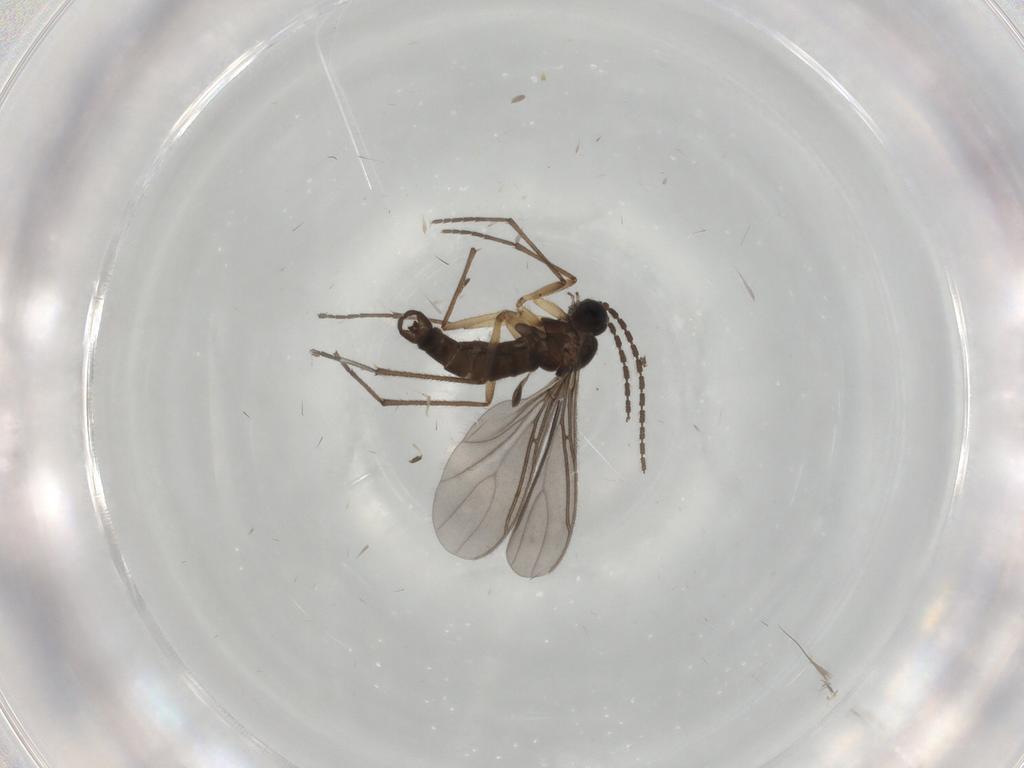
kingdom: Animalia
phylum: Arthropoda
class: Insecta
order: Diptera
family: Sciaridae
